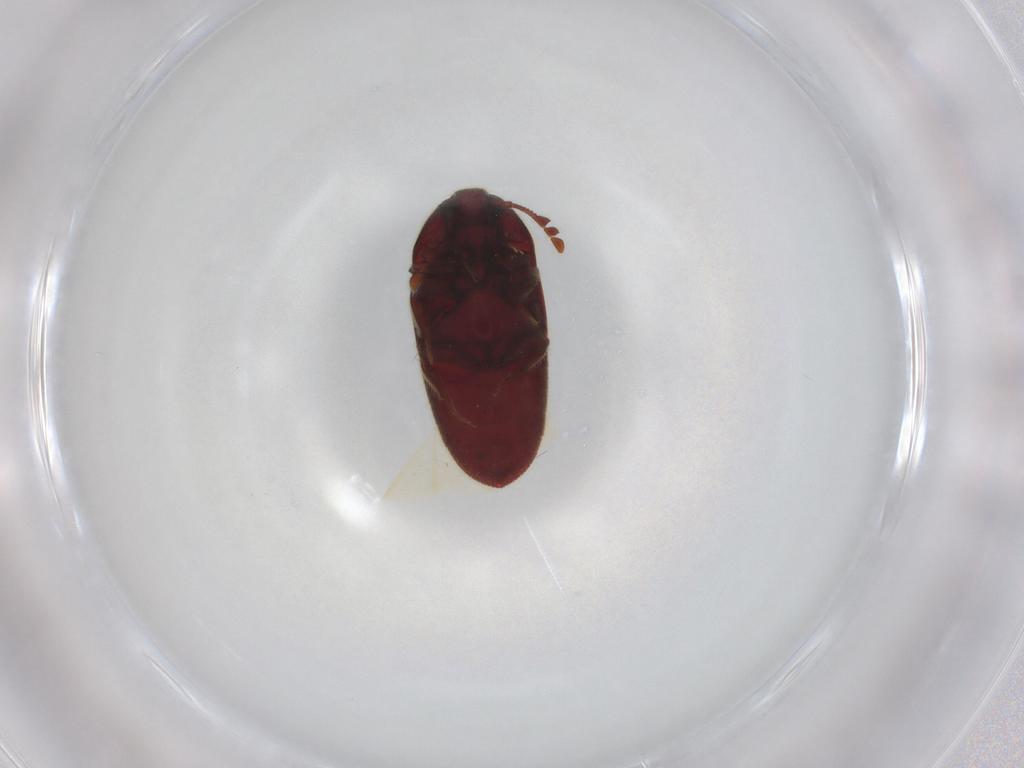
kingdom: Animalia
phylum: Arthropoda
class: Insecta
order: Coleoptera
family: Throscidae
